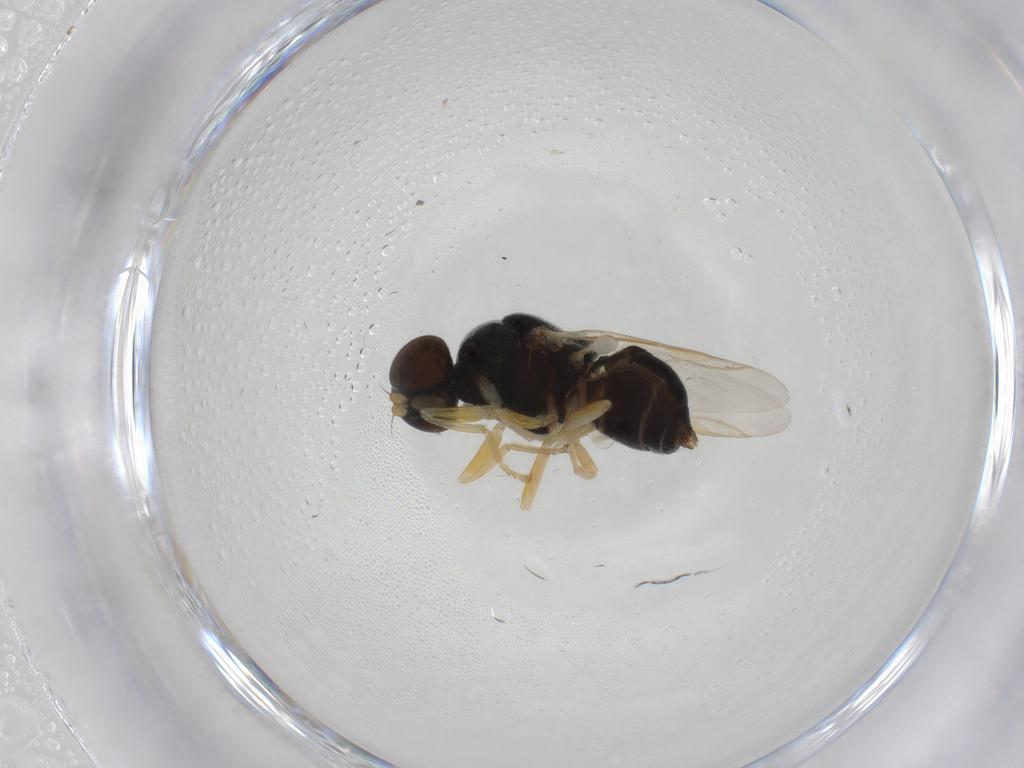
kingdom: Animalia
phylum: Arthropoda
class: Insecta
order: Diptera
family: Stratiomyidae
